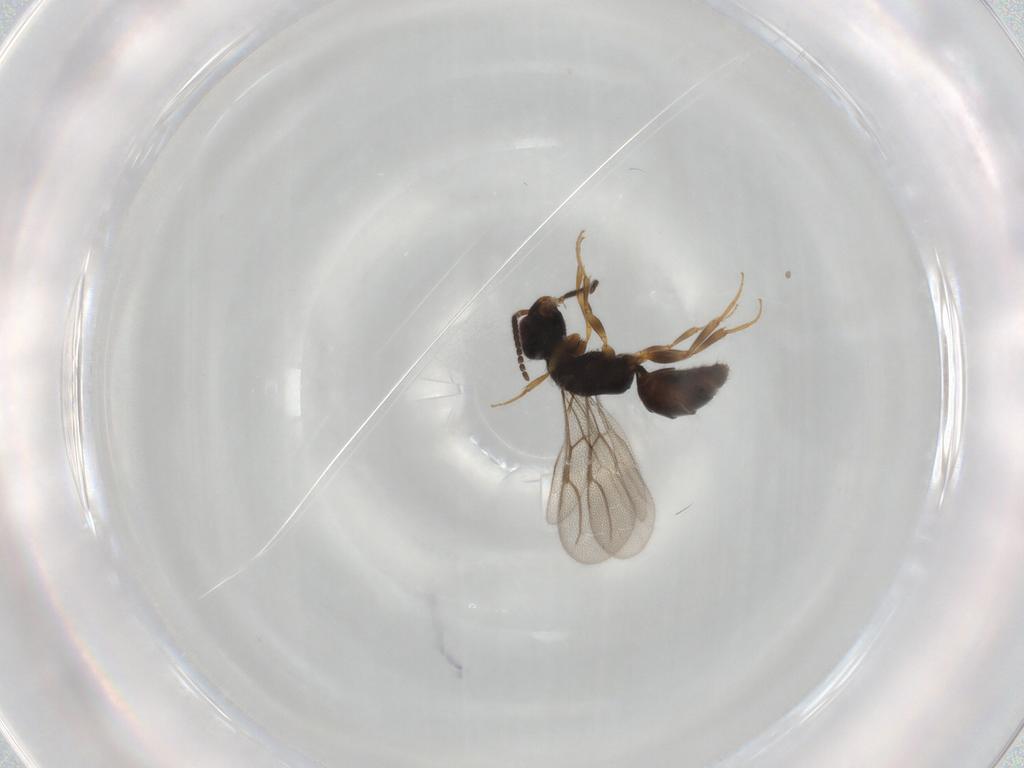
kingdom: Animalia
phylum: Arthropoda
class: Insecta
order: Hymenoptera
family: Bethylidae
